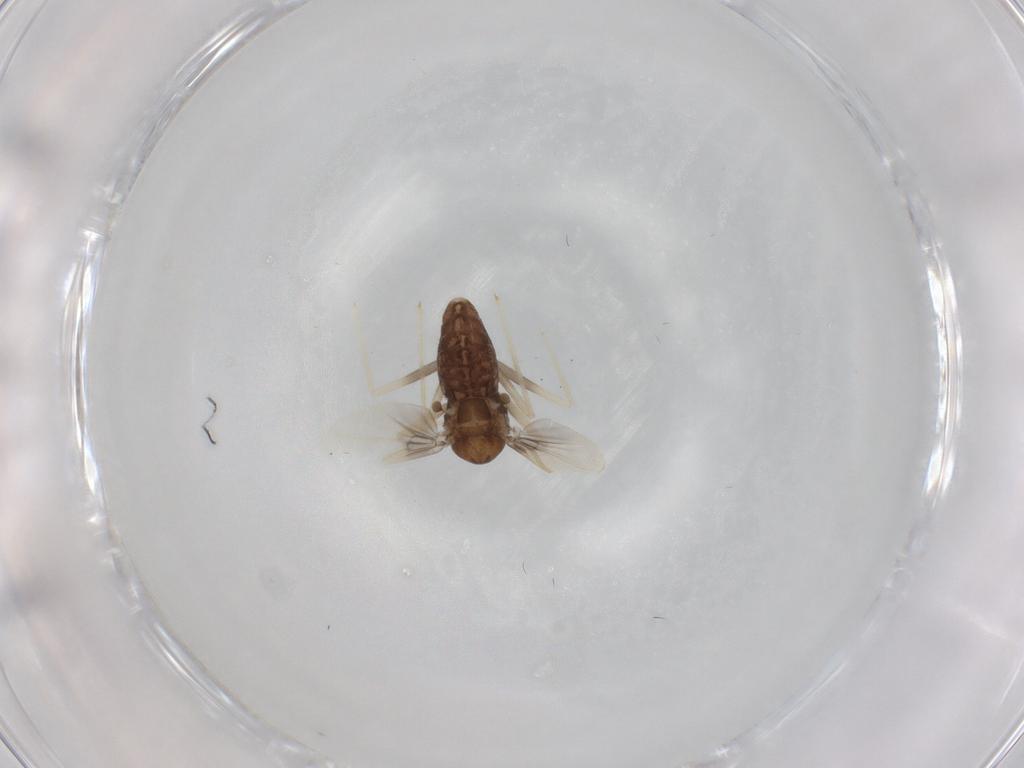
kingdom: Animalia
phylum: Arthropoda
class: Insecta
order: Diptera
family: Chironomidae
